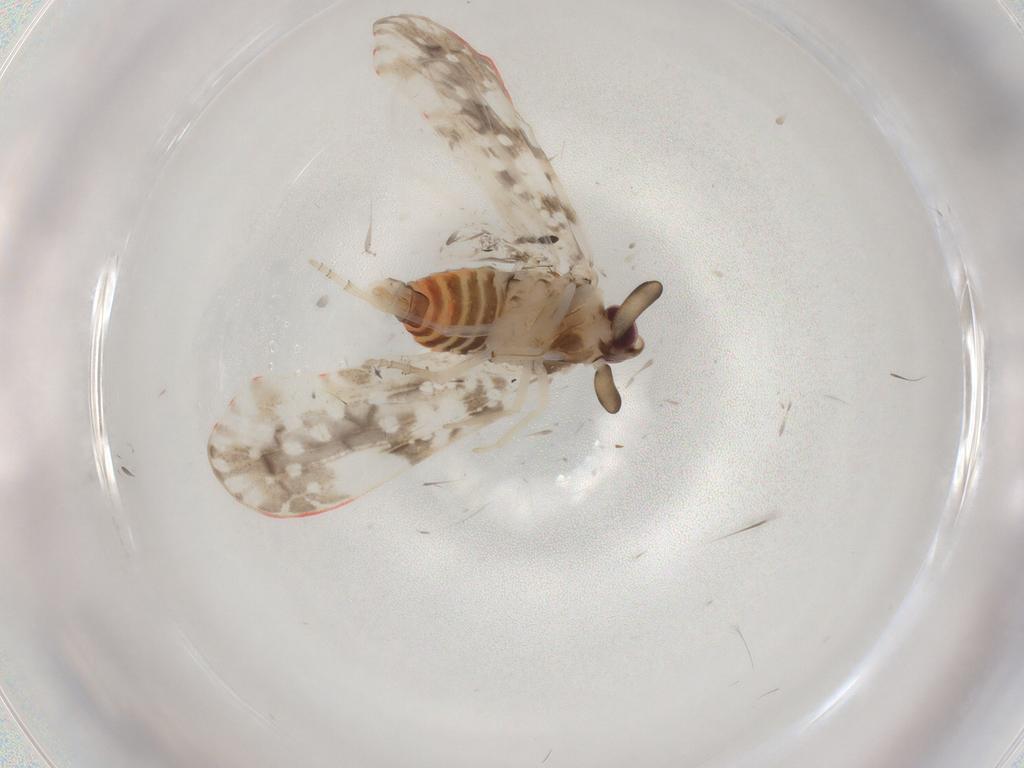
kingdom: Animalia
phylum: Arthropoda
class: Insecta
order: Hemiptera
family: Derbidae
